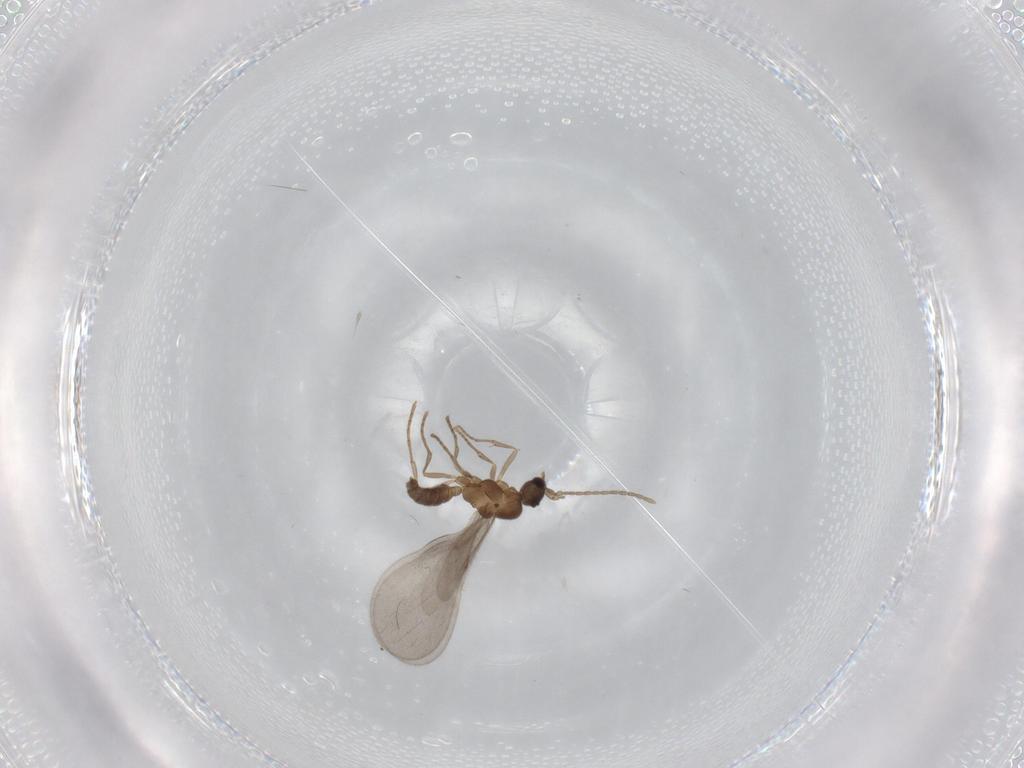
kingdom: Animalia
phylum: Arthropoda
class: Insecta
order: Hymenoptera
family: Formicidae
